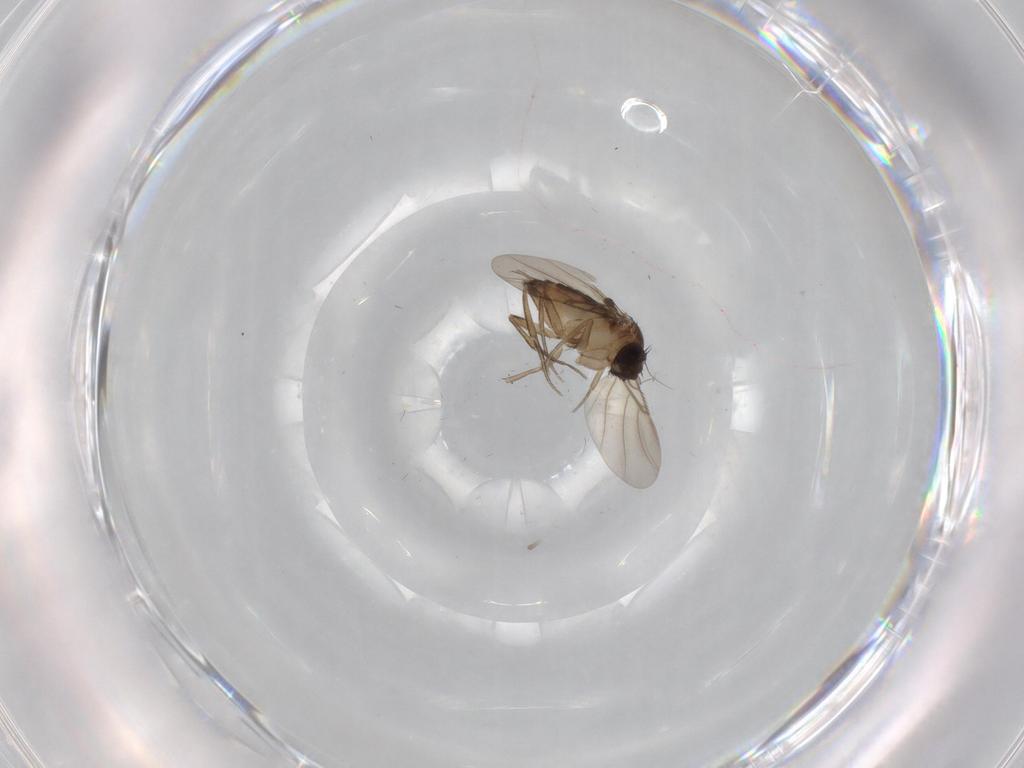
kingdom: Animalia
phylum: Arthropoda
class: Insecta
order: Diptera
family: Phoridae
